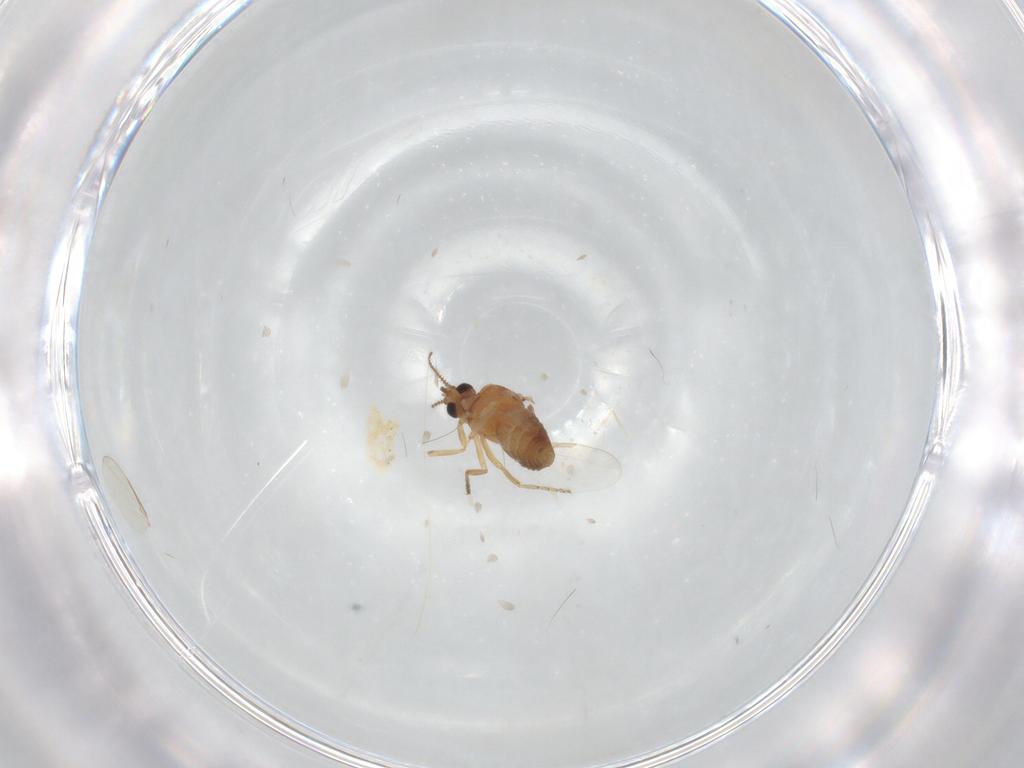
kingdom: Animalia
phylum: Arthropoda
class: Insecta
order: Diptera
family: Ceratopogonidae
